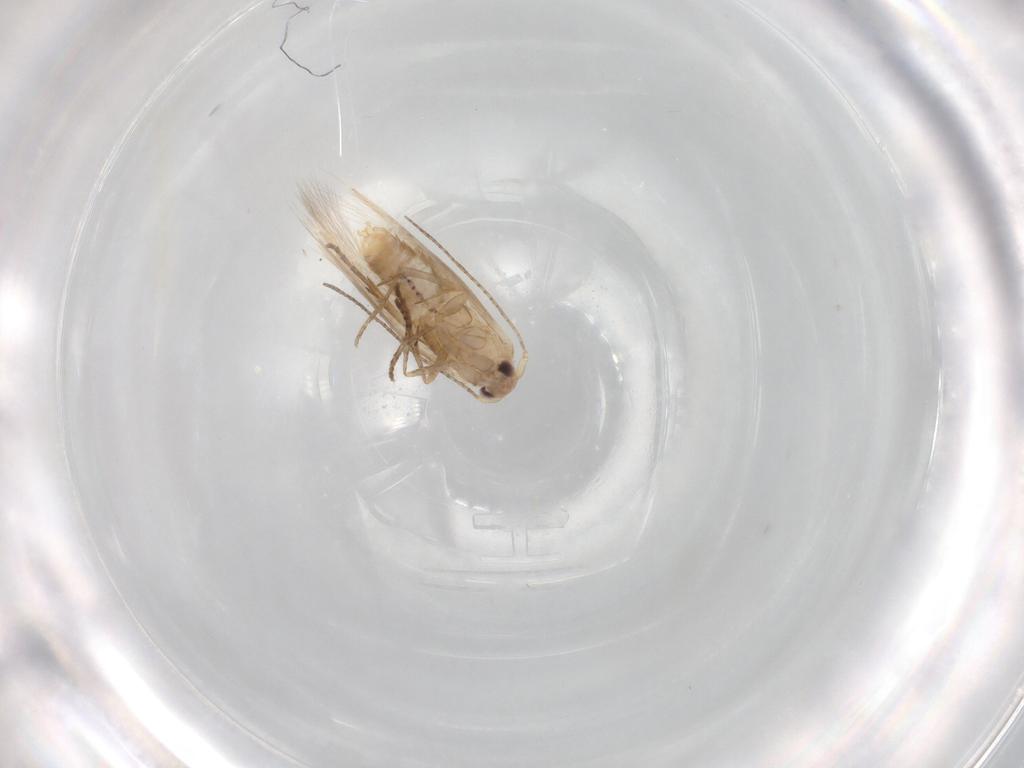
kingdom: Animalia
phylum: Arthropoda
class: Insecta
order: Lepidoptera
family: Bucculatricidae
